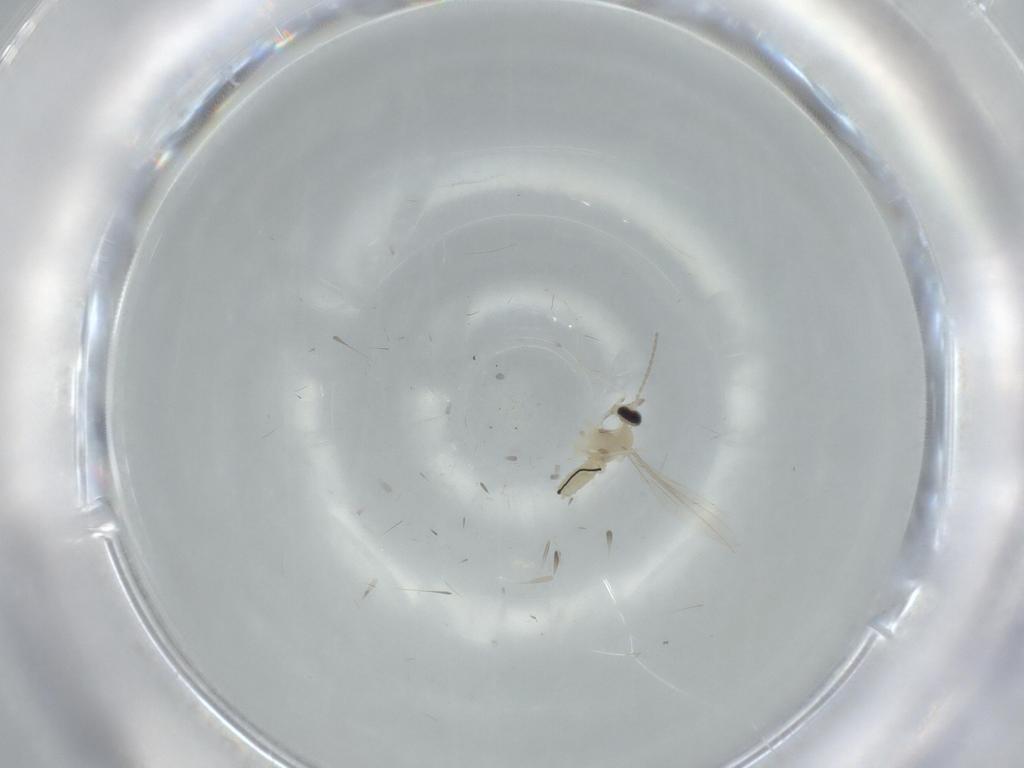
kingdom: Animalia
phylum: Arthropoda
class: Insecta
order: Diptera
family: Cecidomyiidae
